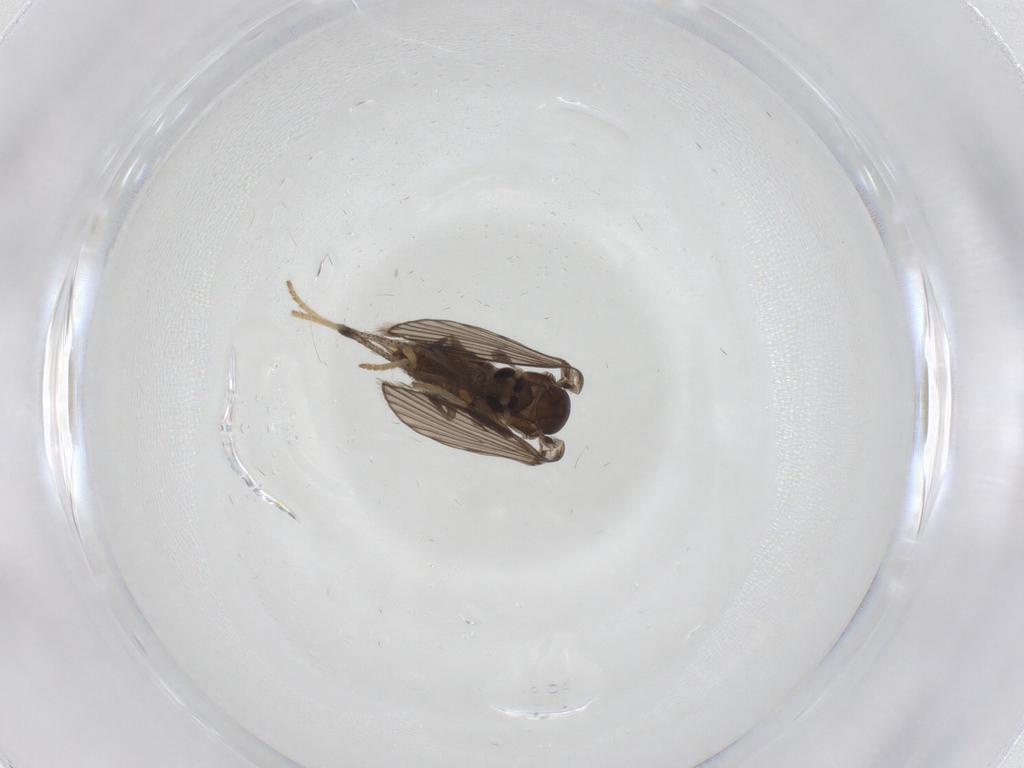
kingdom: Animalia
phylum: Arthropoda
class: Insecta
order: Diptera
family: Psychodidae
